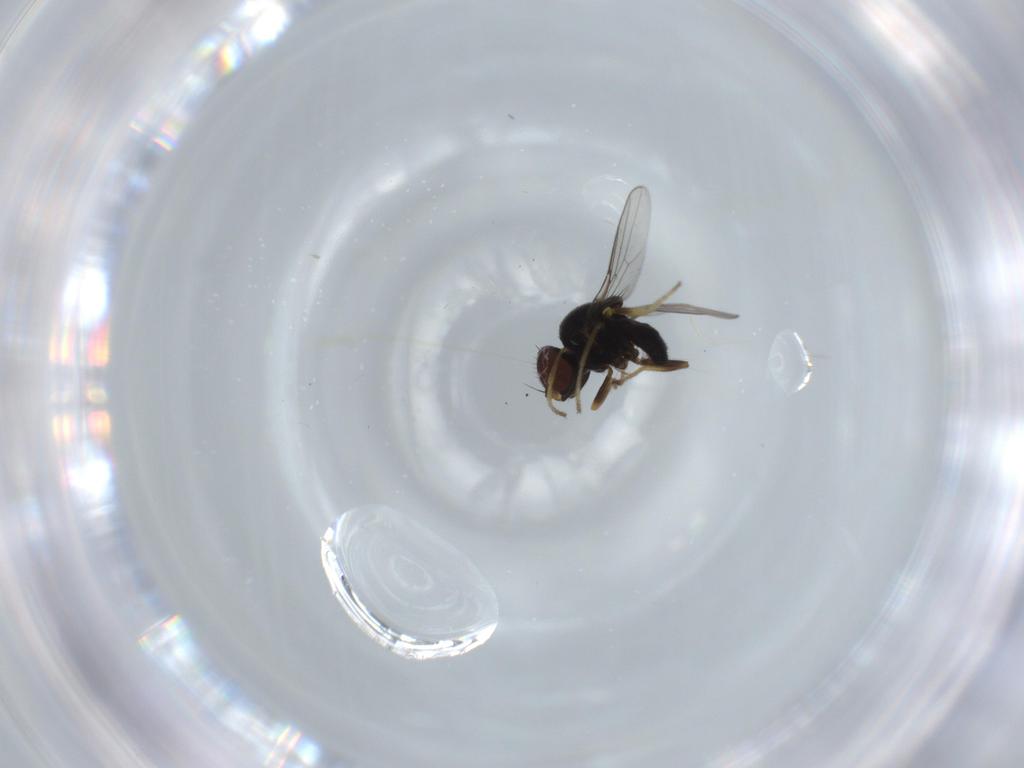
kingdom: Animalia
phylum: Arthropoda
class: Insecta
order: Diptera
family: Chloropidae
